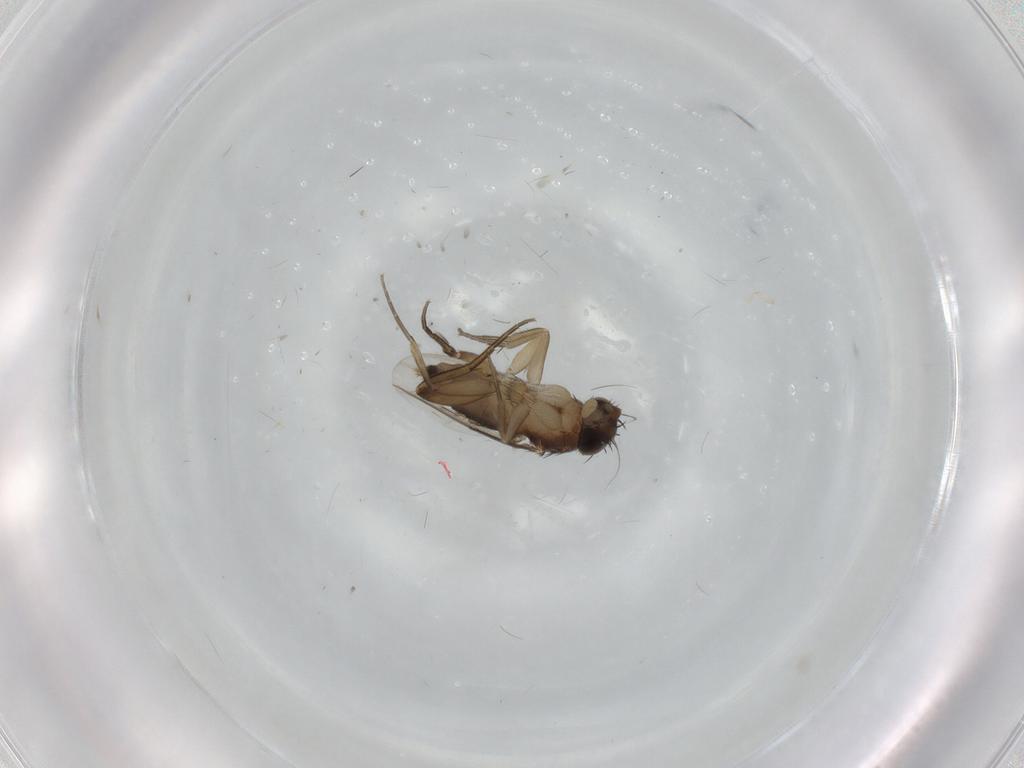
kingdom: Animalia
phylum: Arthropoda
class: Insecta
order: Diptera
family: Phoridae
